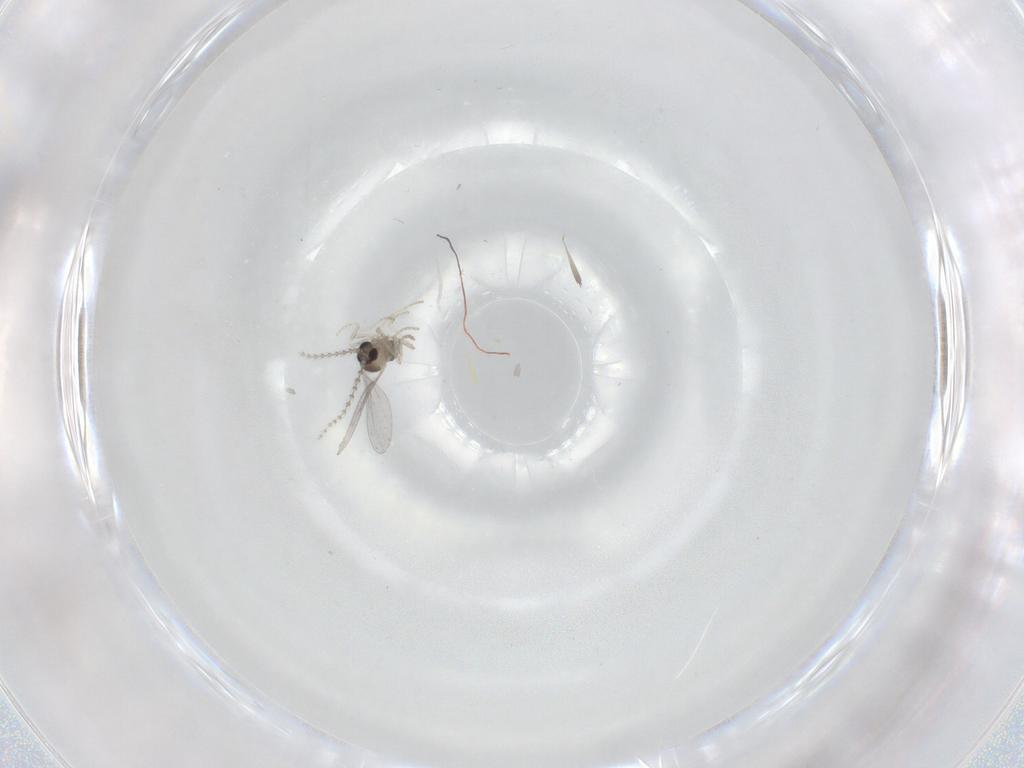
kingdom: Animalia
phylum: Arthropoda
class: Insecta
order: Diptera
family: Cecidomyiidae
